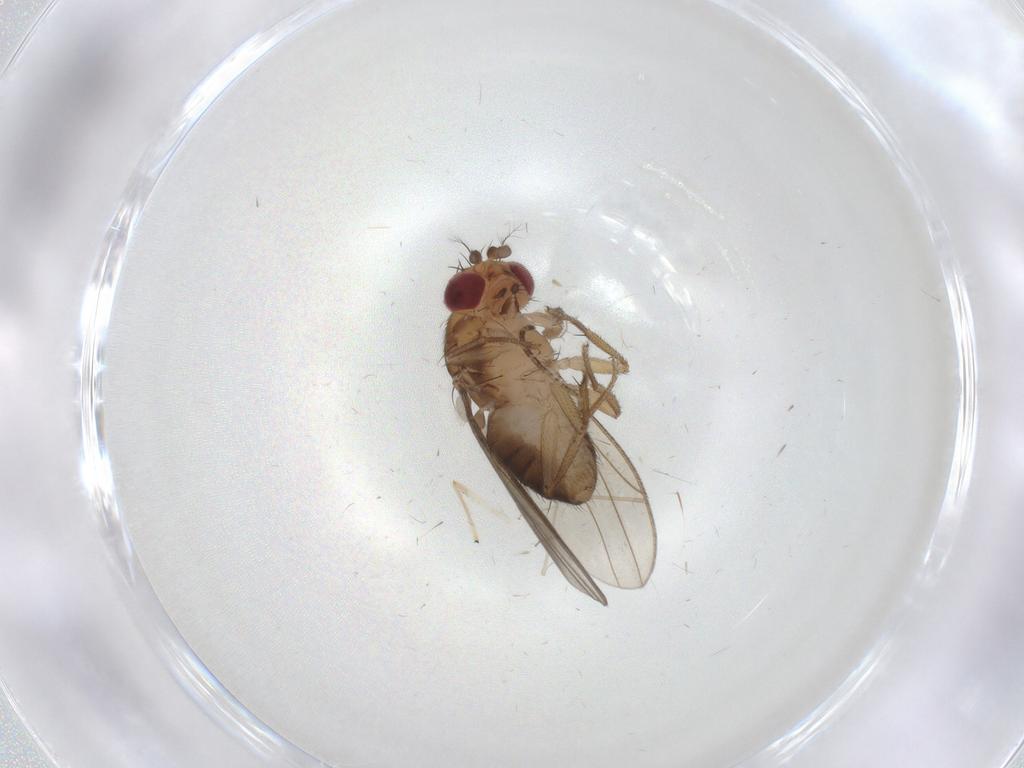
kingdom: Animalia
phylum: Arthropoda
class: Insecta
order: Diptera
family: Drosophilidae
